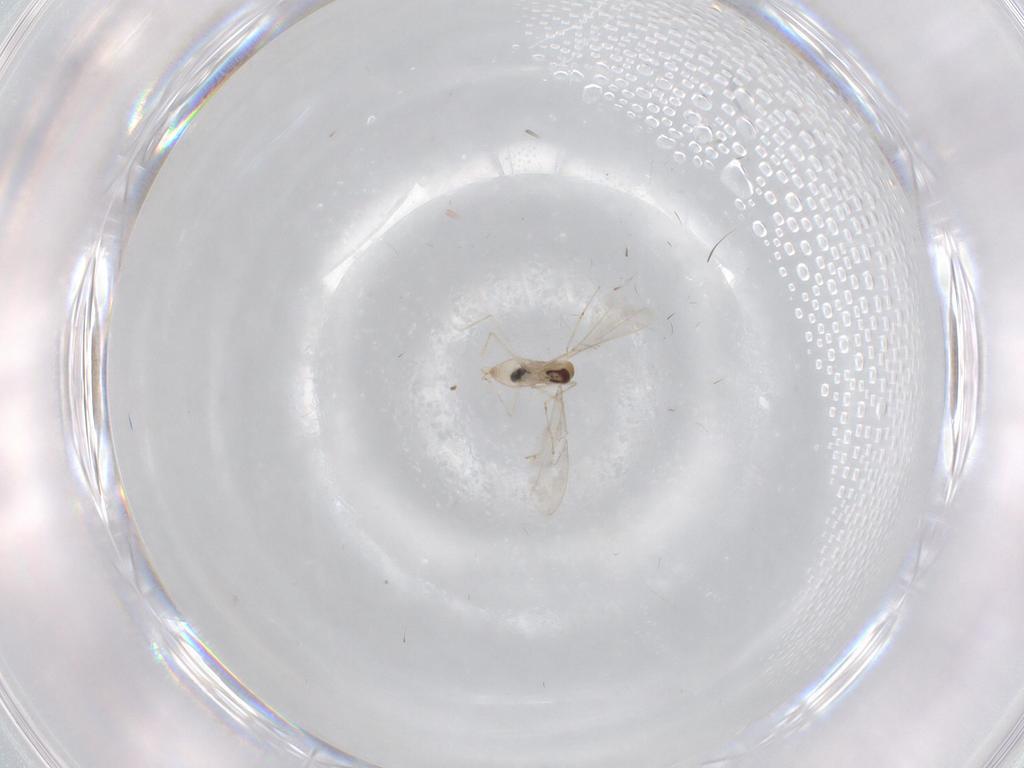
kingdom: Animalia
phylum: Arthropoda
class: Insecta
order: Diptera
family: Cecidomyiidae
